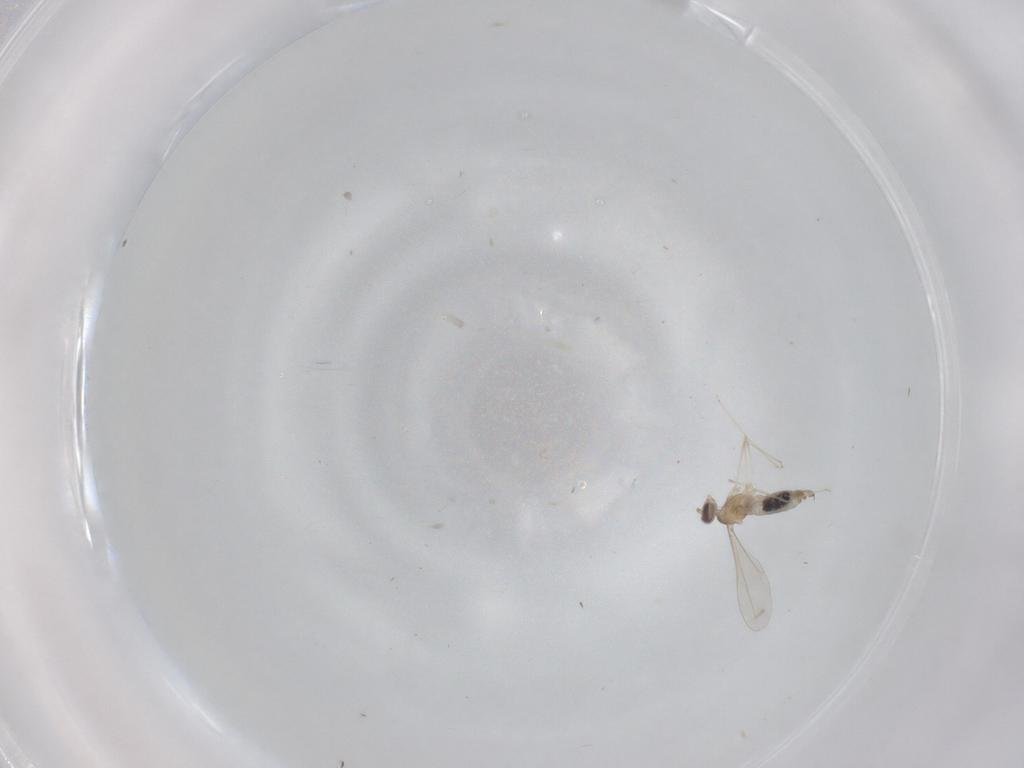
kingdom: Animalia
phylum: Arthropoda
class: Insecta
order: Diptera
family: Cecidomyiidae
